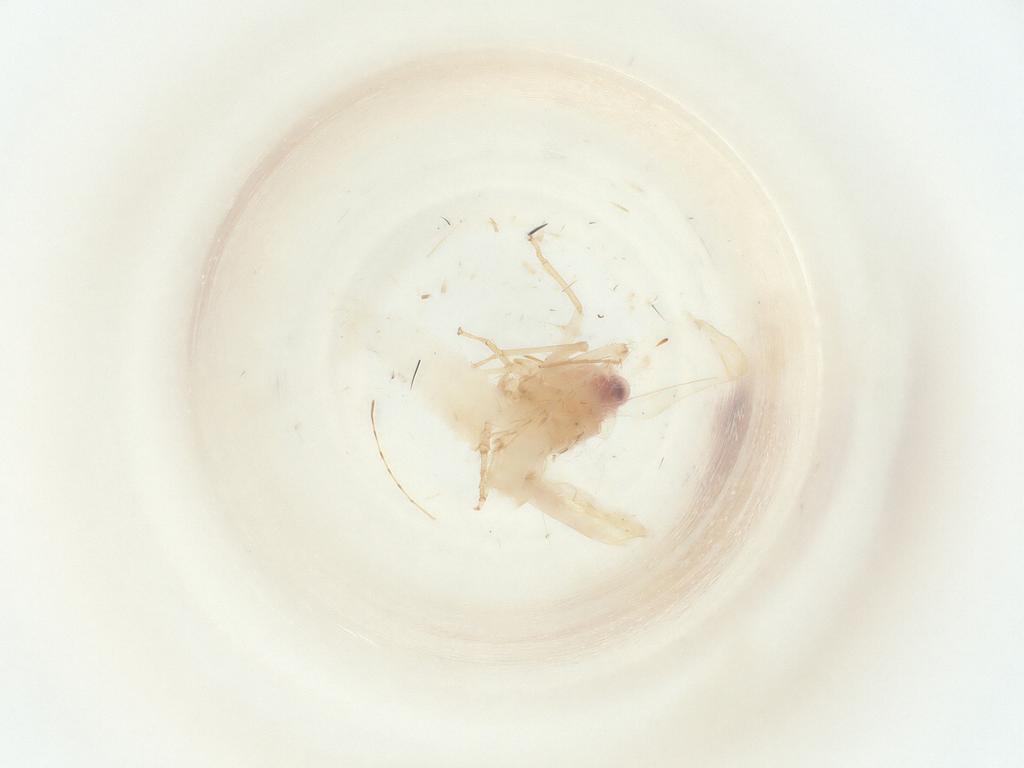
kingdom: Animalia
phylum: Arthropoda
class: Insecta
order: Hymenoptera
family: Dryinidae
